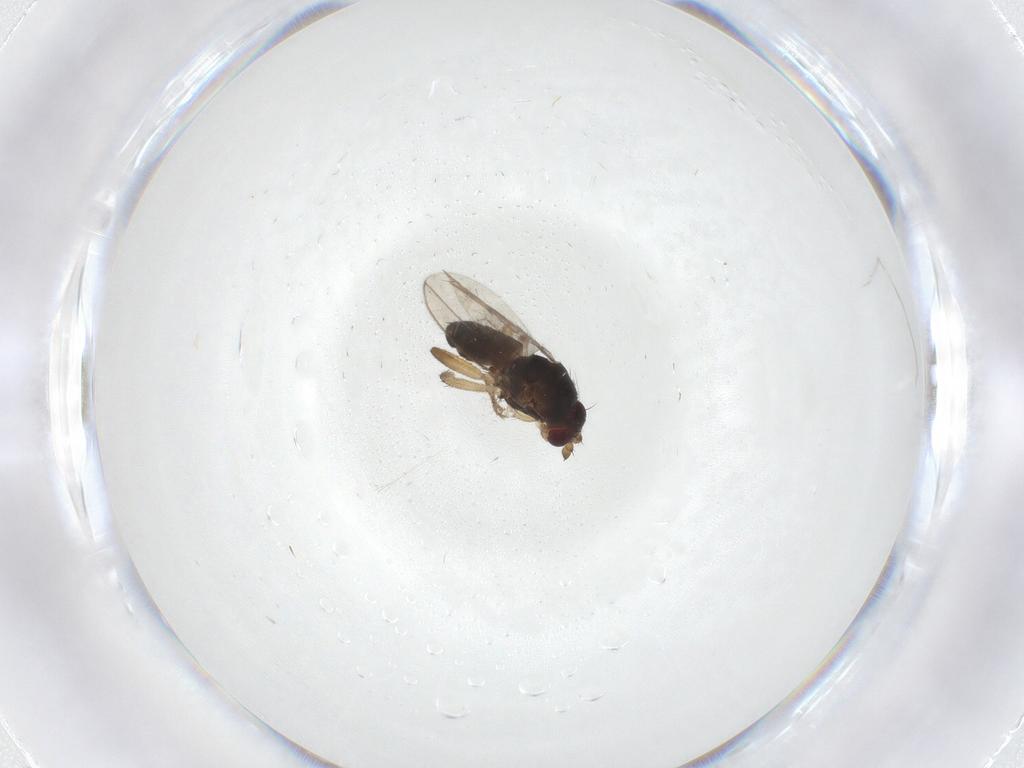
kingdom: Animalia
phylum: Arthropoda
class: Insecta
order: Diptera
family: Sphaeroceridae
